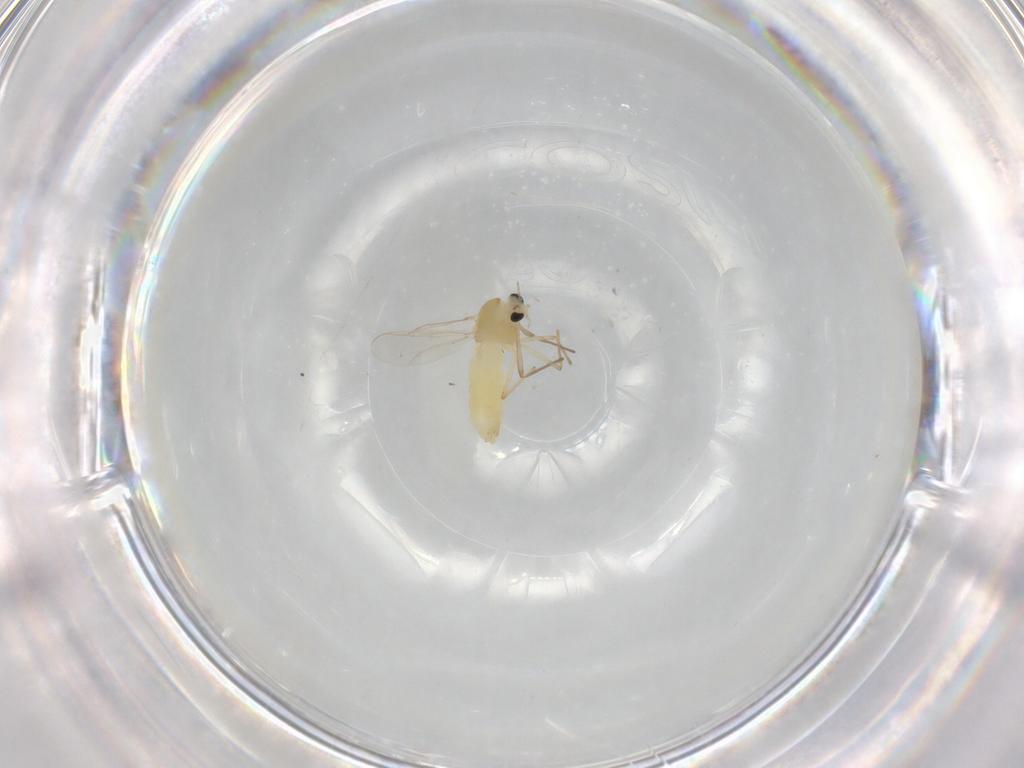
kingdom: Animalia
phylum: Arthropoda
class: Insecta
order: Diptera
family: Chironomidae
